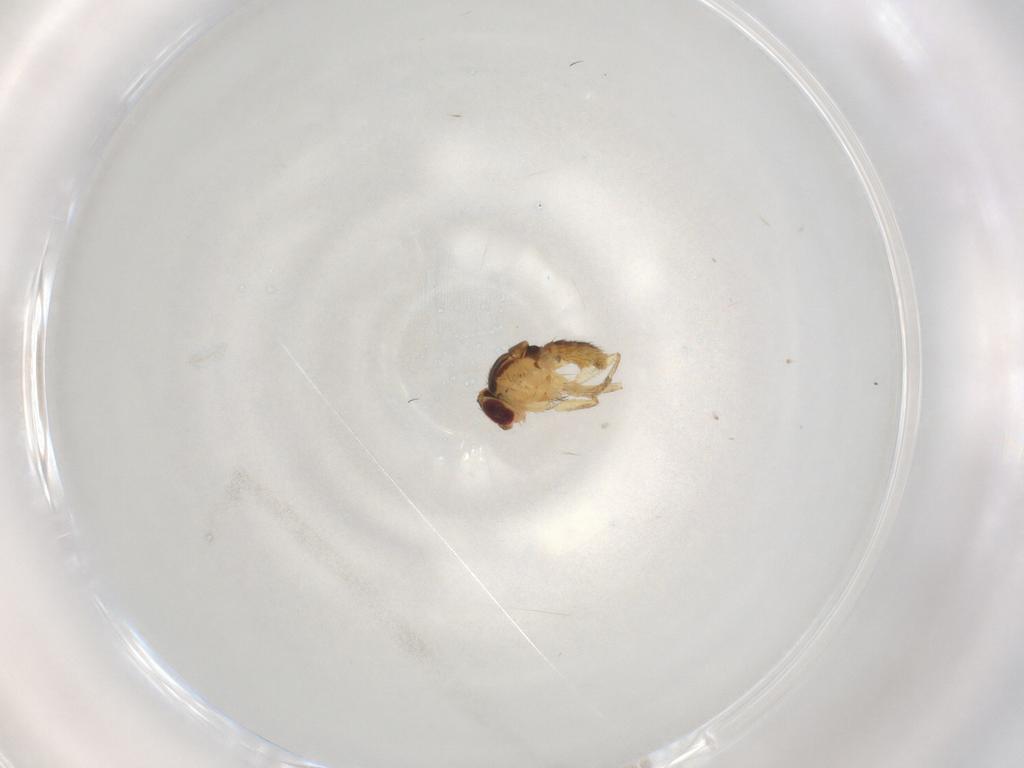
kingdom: Animalia
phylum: Arthropoda
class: Insecta
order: Diptera
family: Agromyzidae
